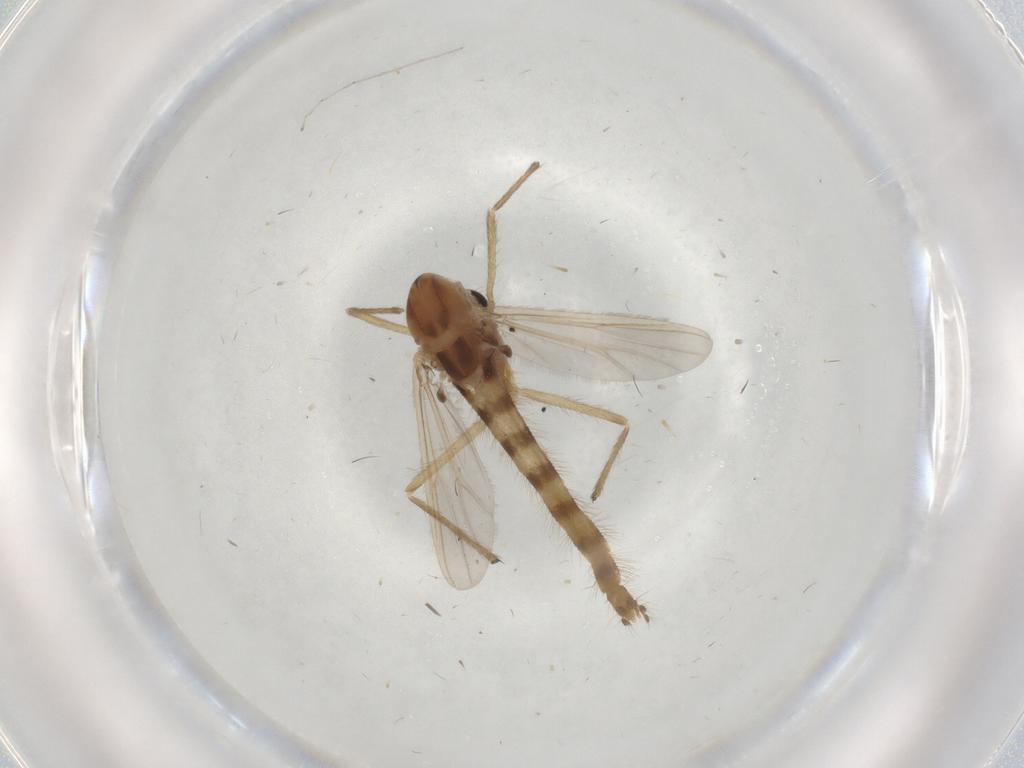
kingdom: Animalia
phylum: Arthropoda
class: Insecta
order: Diptera
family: Chironomidae
